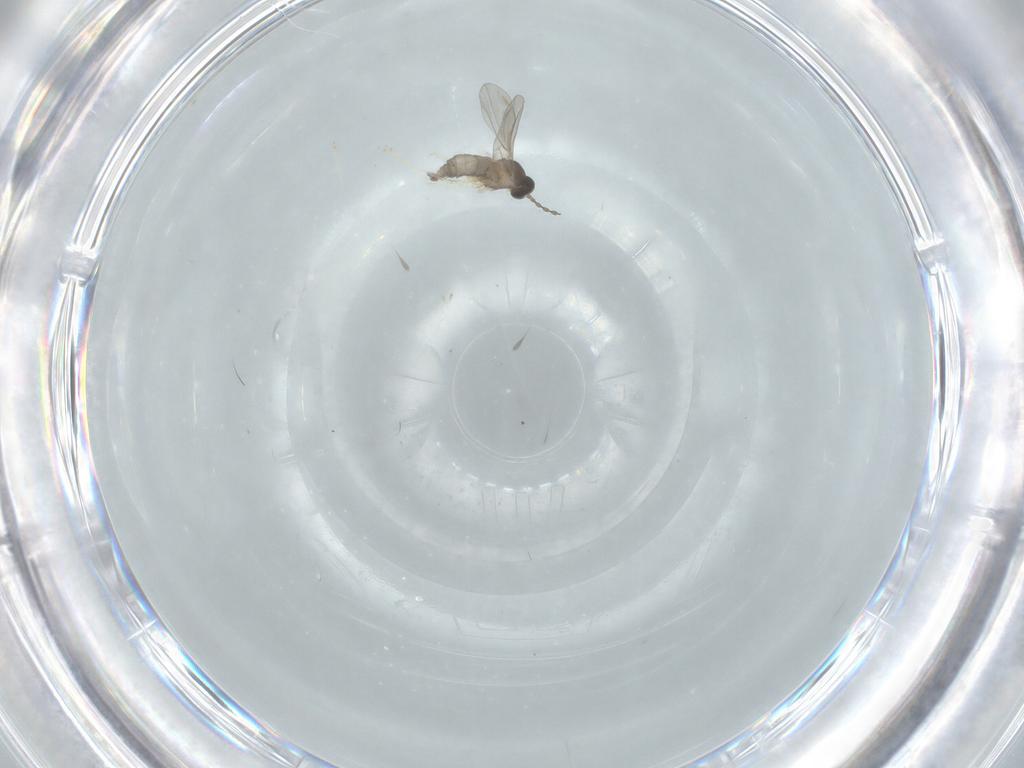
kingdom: Animalia
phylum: Arthropoda
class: Insecta
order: Diptera
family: Cecidomyiidae
